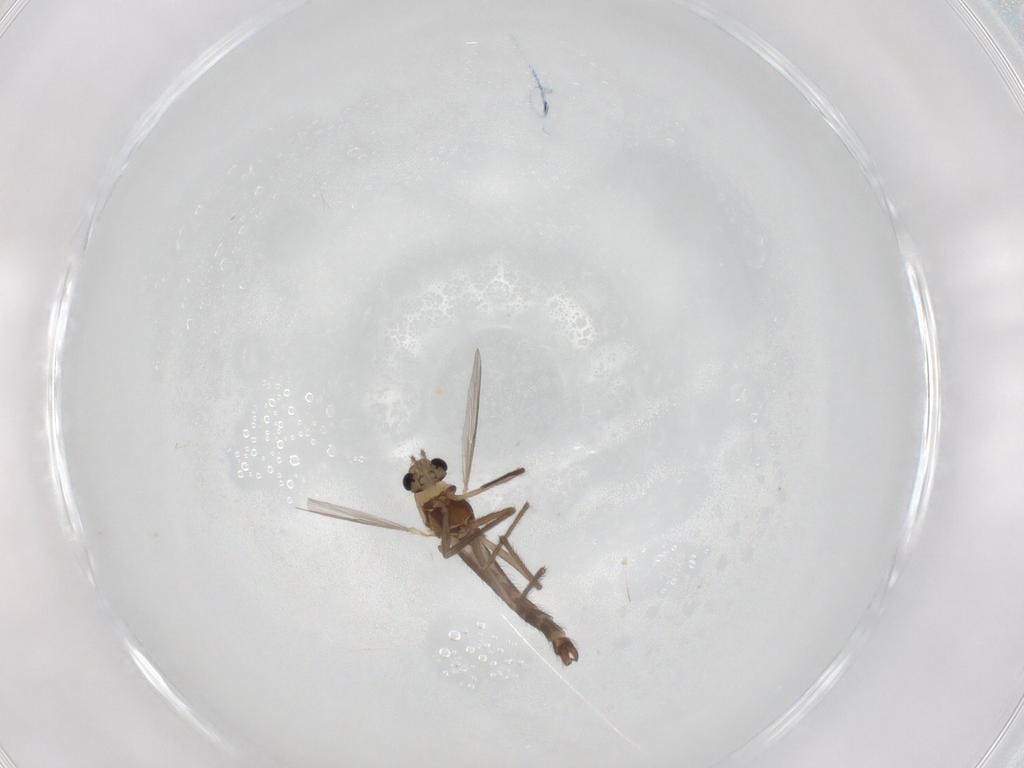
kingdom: Animalia
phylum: Arthropoda
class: Insecta
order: Diptera
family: Chironomidae
